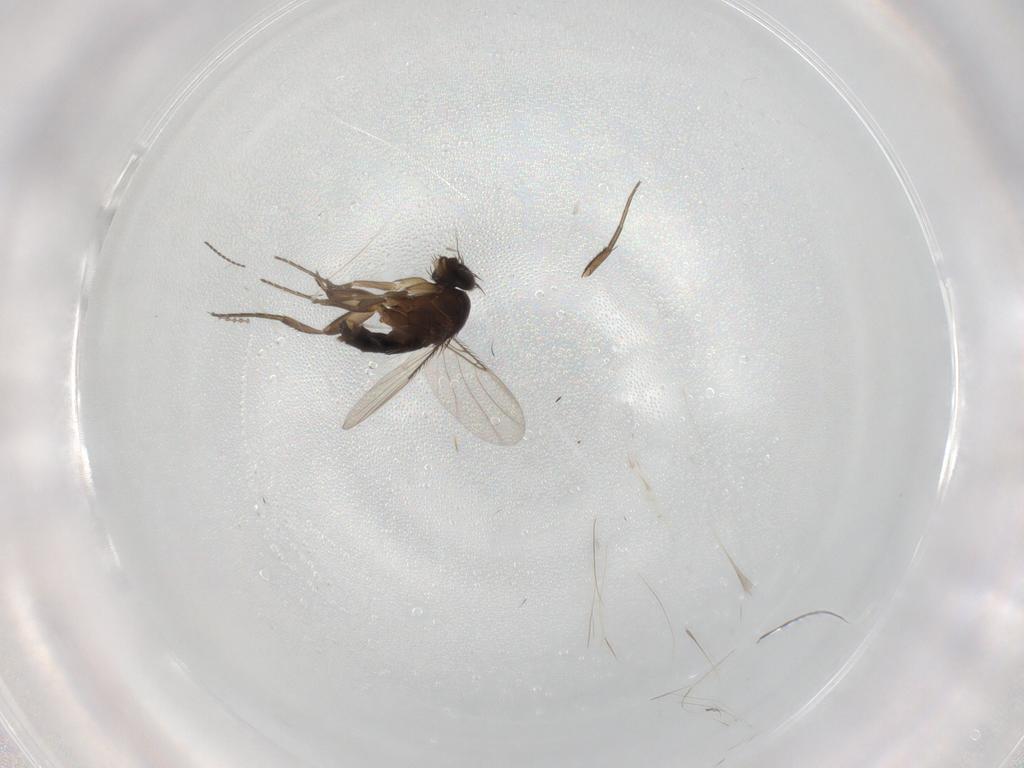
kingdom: Animalia
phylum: Arthropoda
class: Insecta
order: Diptera
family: Phoridae
